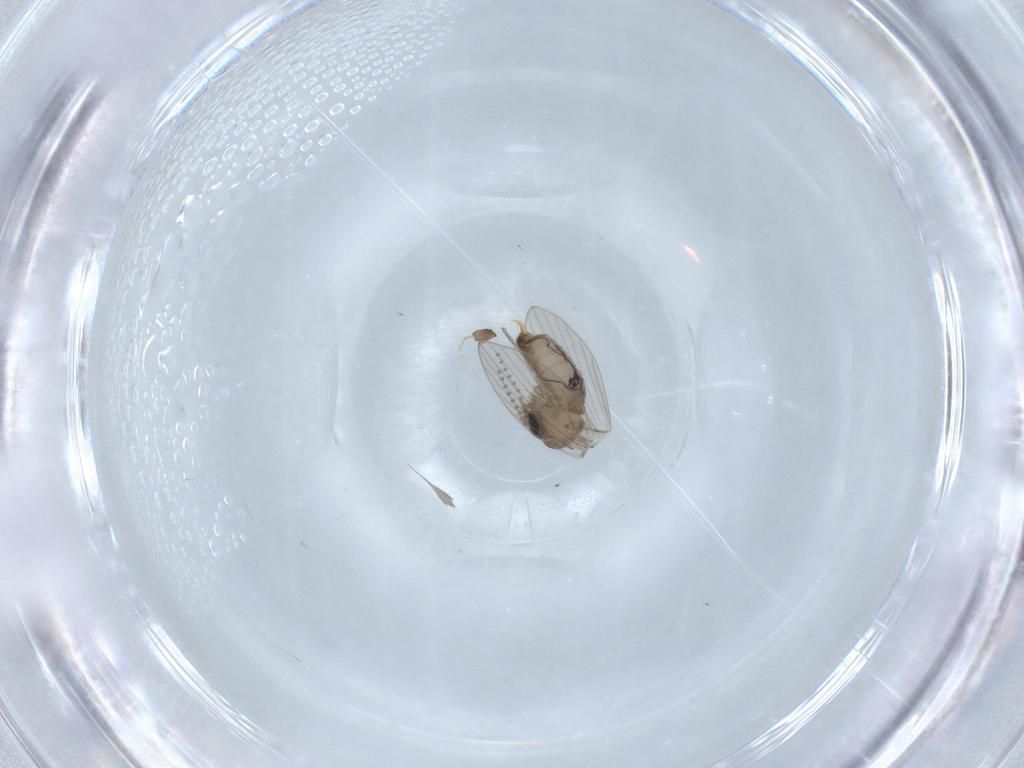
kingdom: Animalia
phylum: Arthropoda
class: Insecta
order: Diptera
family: Psychodidae
